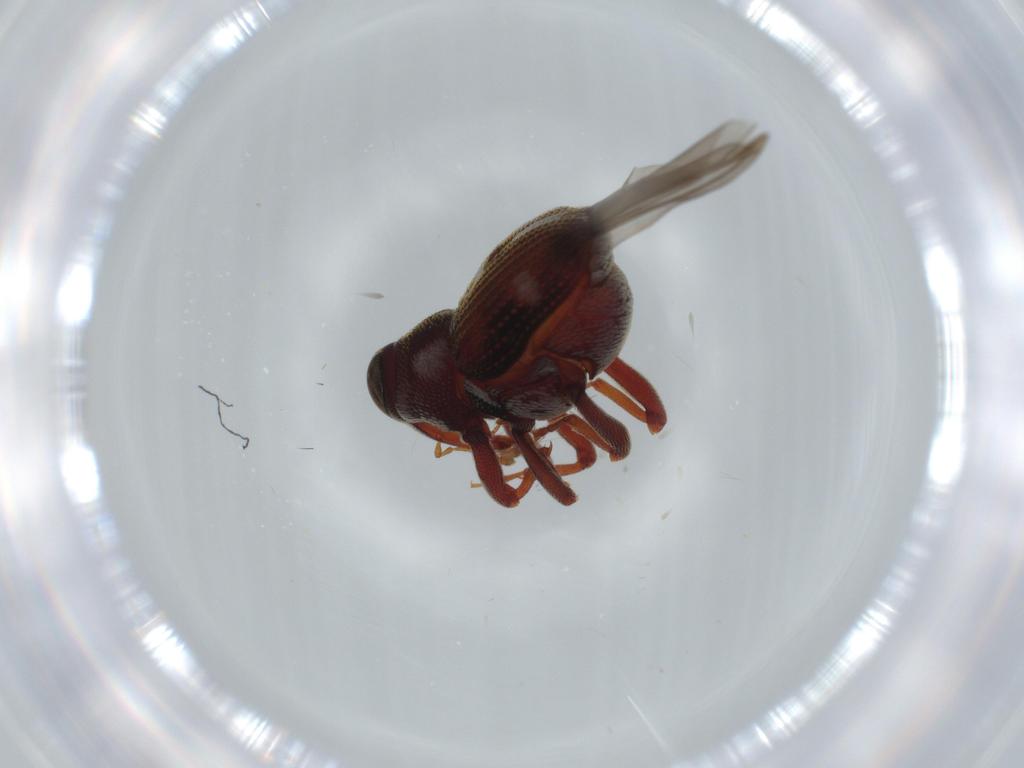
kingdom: Animalia
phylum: Arthropoda
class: Insecta
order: Coleoptera
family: Curculionidae
